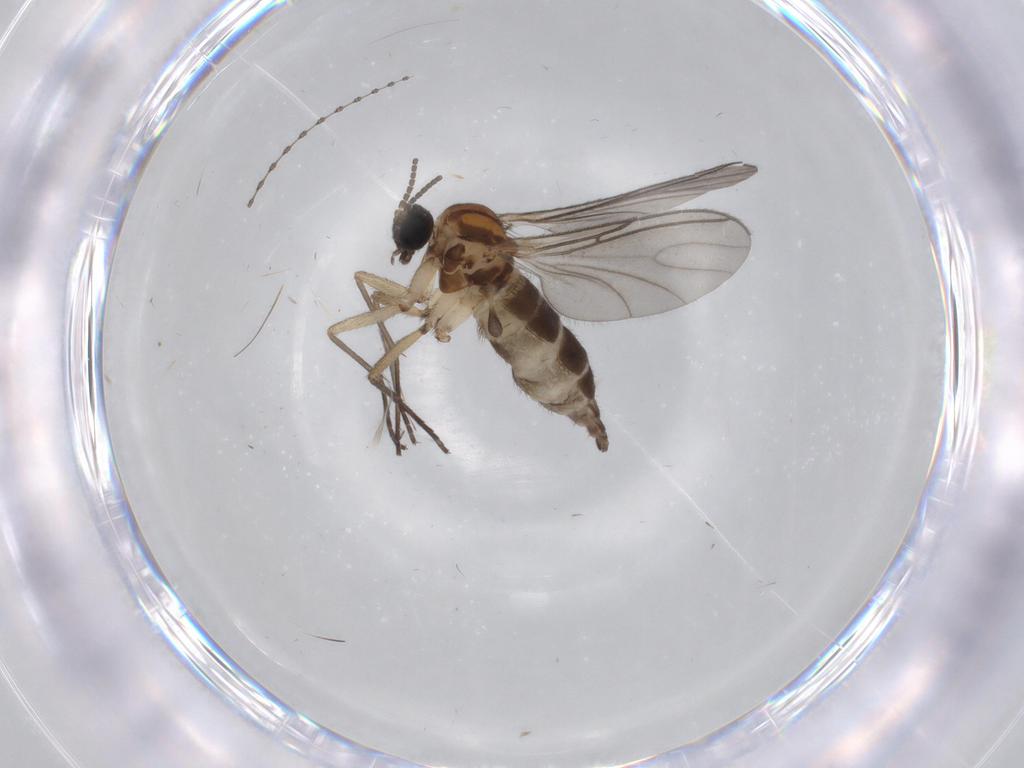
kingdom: Animalia
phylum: Arthropoda
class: Insecta
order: Diptera
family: Sciaridae
